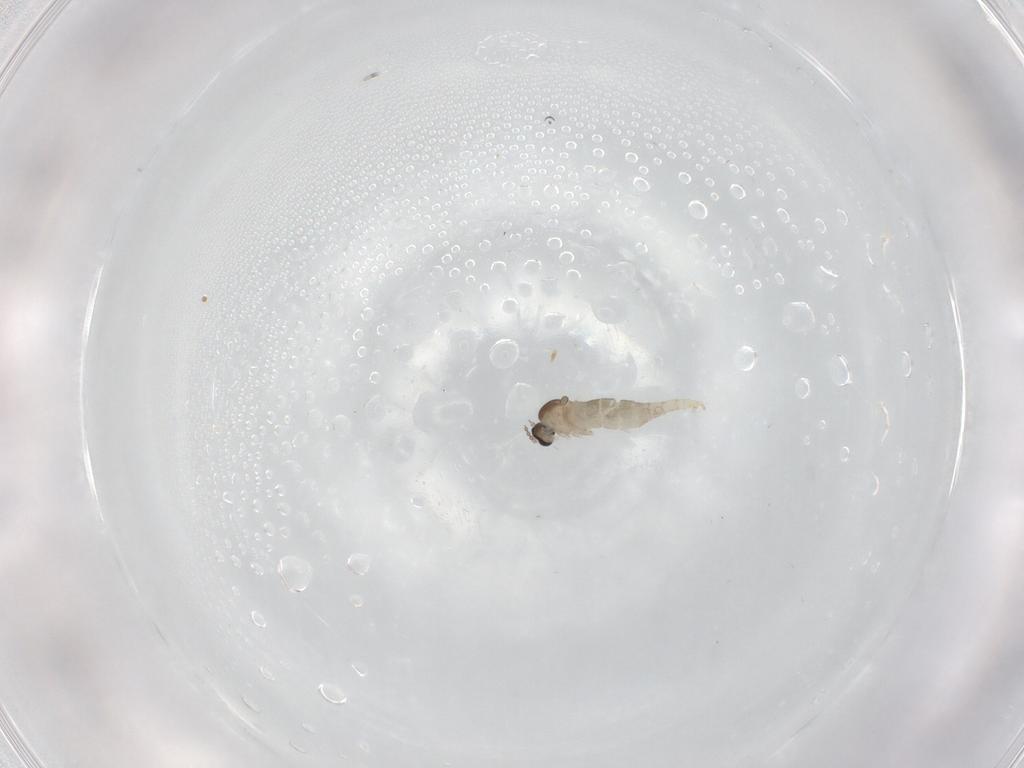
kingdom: Animalia
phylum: Arthropoda
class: Insecta
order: Diptera
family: Cecidomyiidae
